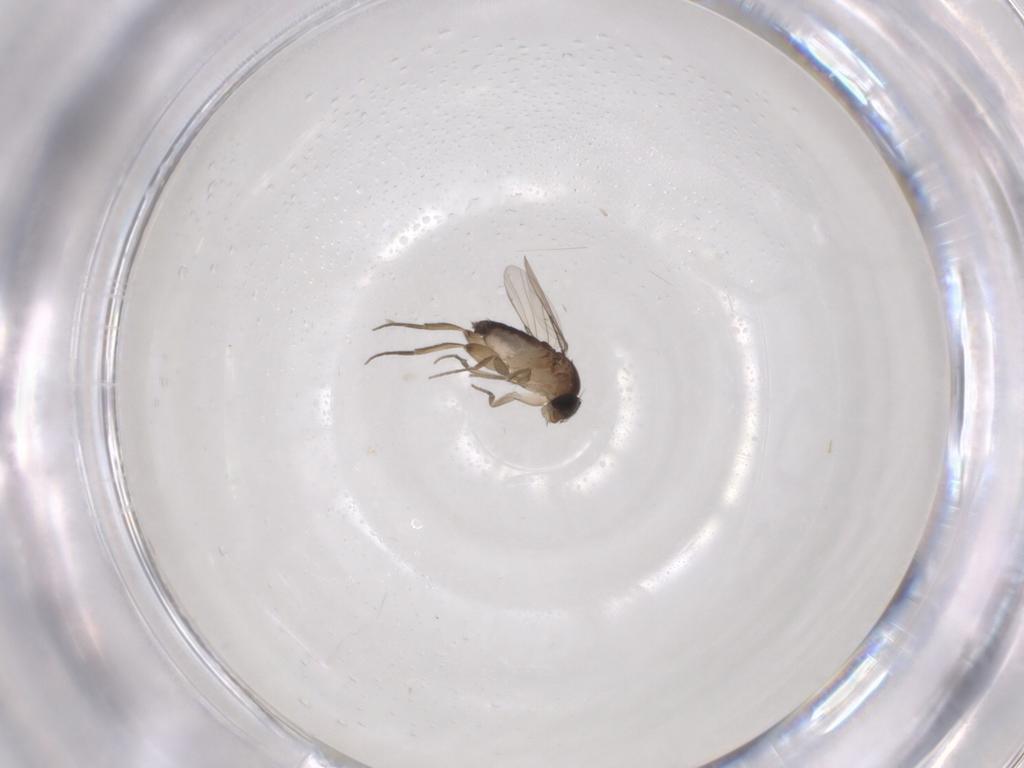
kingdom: Animalia
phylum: Arthropoda
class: Insecta
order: Diptera
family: Phoridae
